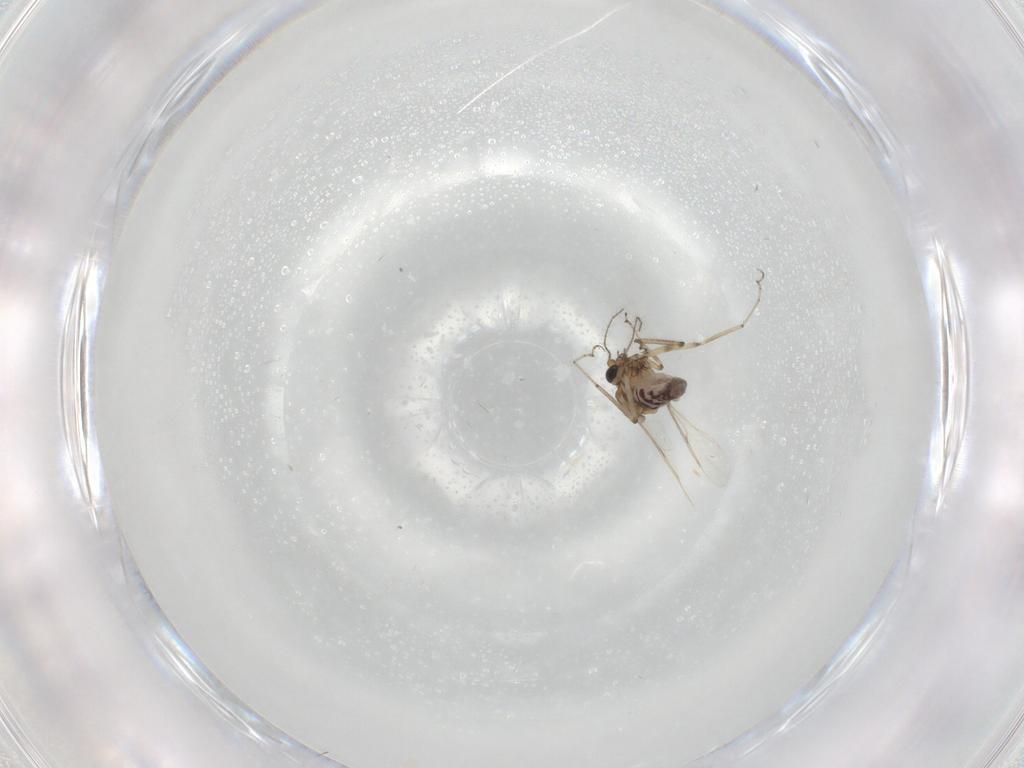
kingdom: Animalia
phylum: Arthropoda
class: Insecta
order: Diptera
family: Ceratopogonidae
